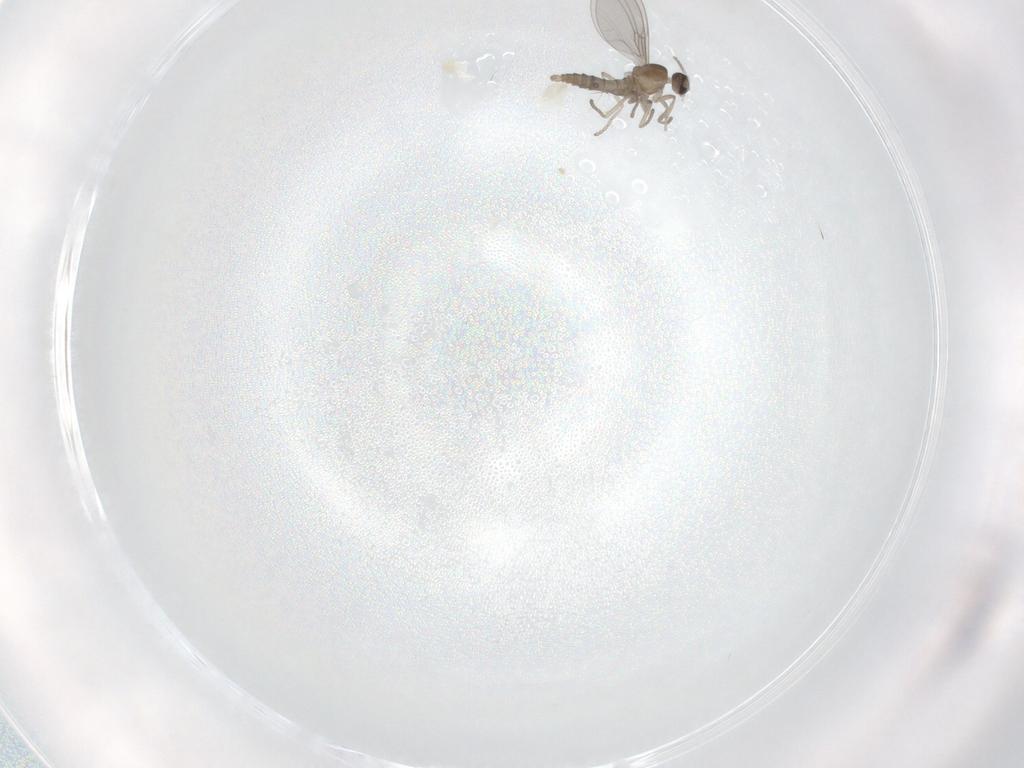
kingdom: Animalia
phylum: Arthropoda
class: Insecta
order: Diptera
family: Cecidomyiidae
